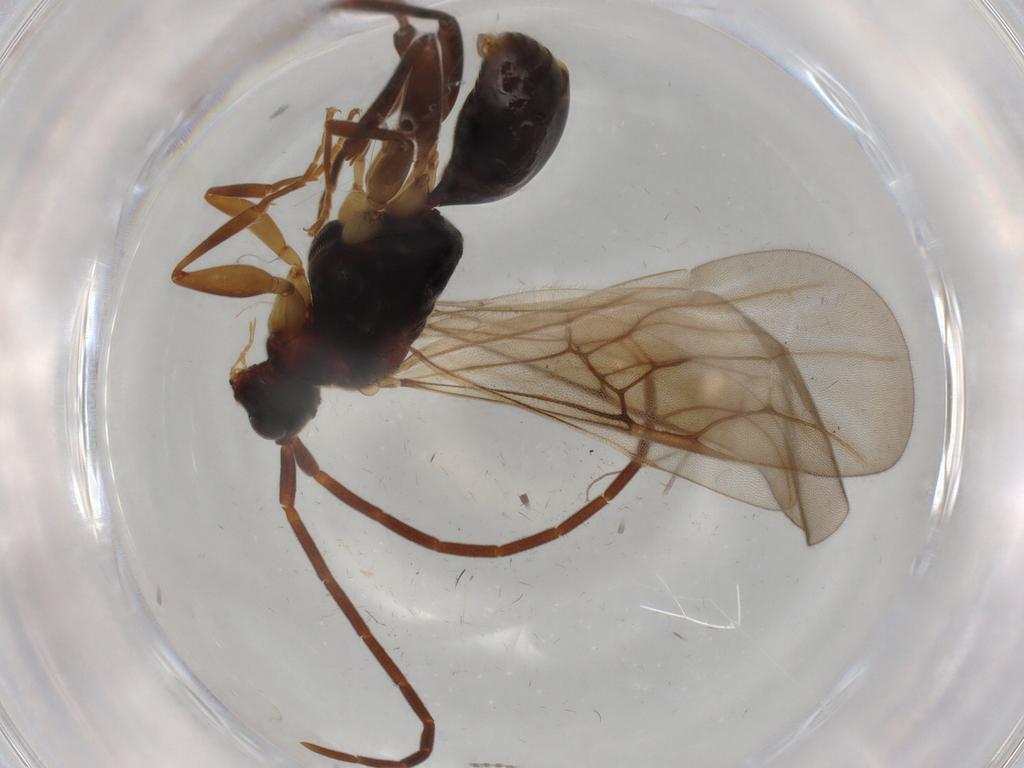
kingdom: Animalia
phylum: Arthropoda
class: Insecta
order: Hymenoptera
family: Embolemidae
